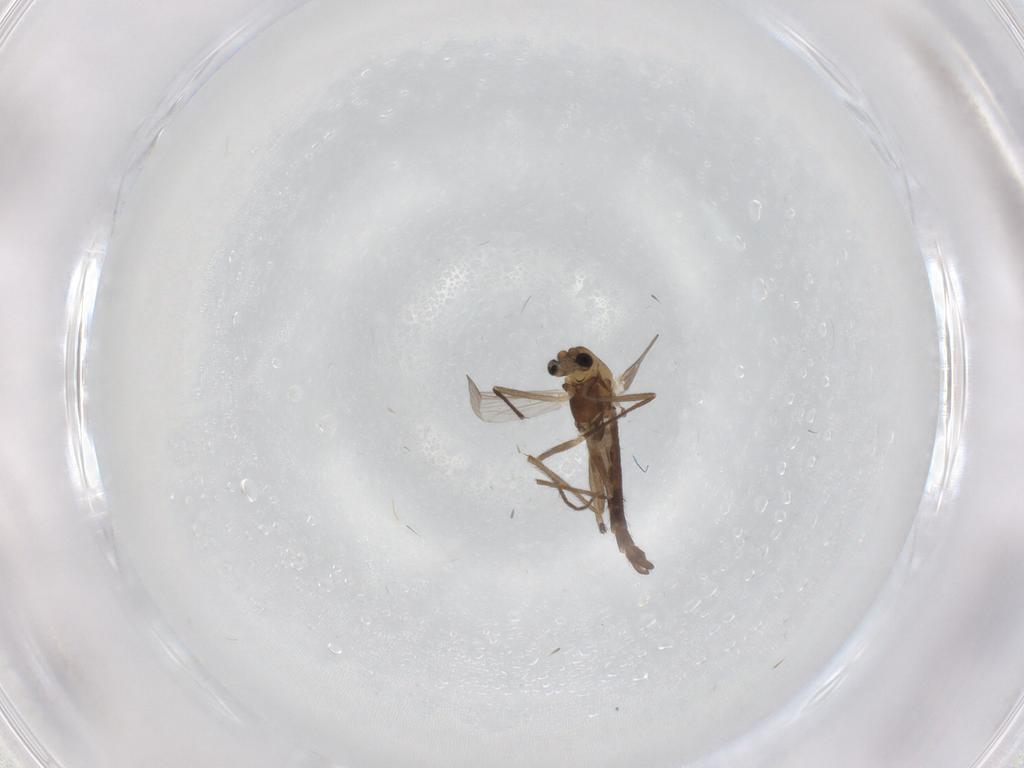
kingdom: Animalia
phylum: Arthropoda
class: Insecta
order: Diptera
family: Chironomidae
